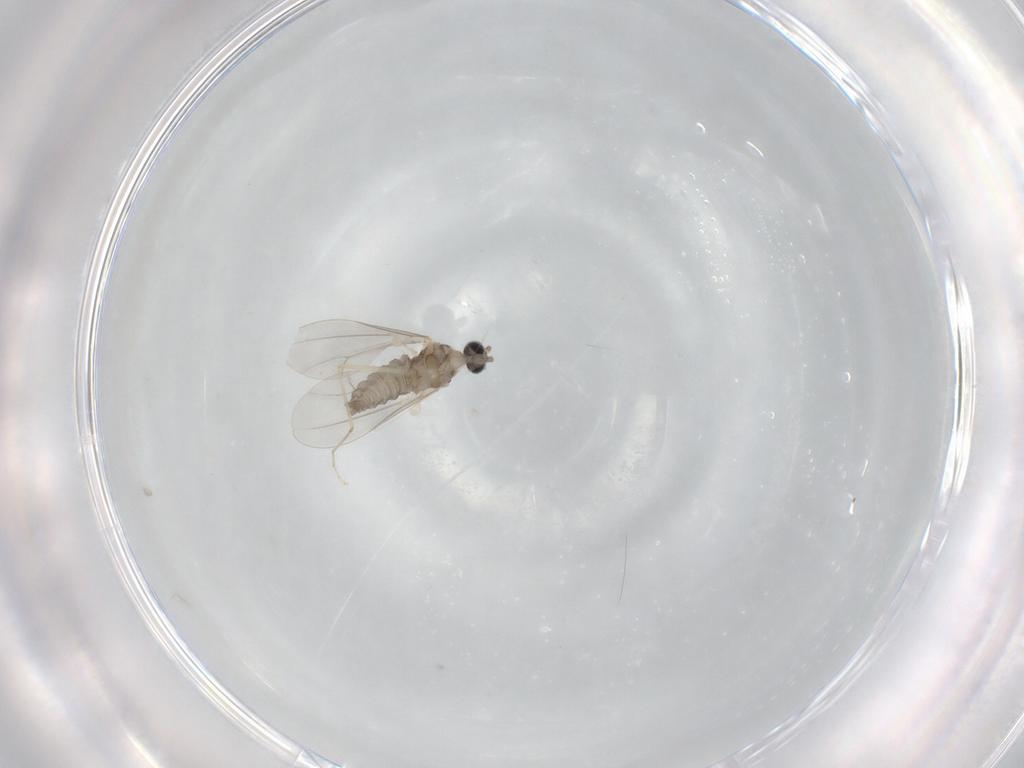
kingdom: Animalia
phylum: Arthropoda
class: Insecta
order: Diptera
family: Cecidomyiidae
